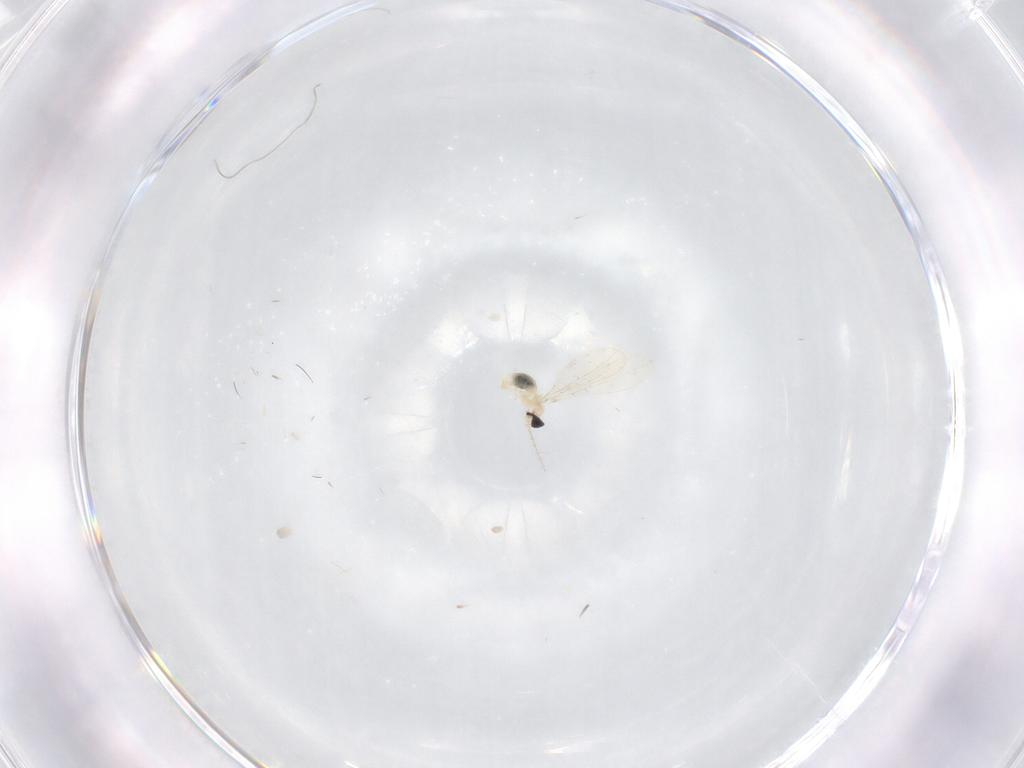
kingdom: Animalia
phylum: Arthropoda
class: Insecta
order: Diptera
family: Cecidomyiidae
